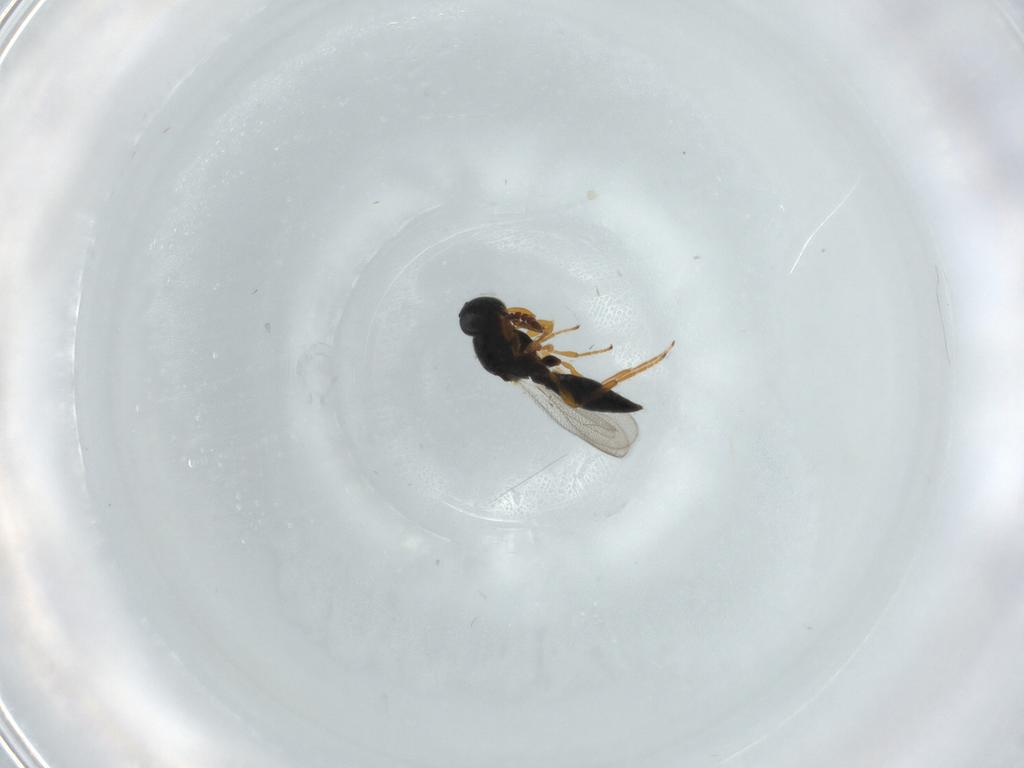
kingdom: Animalia
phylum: Arthropoda
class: Insecta
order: Hymenoptera
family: Platygastridae
